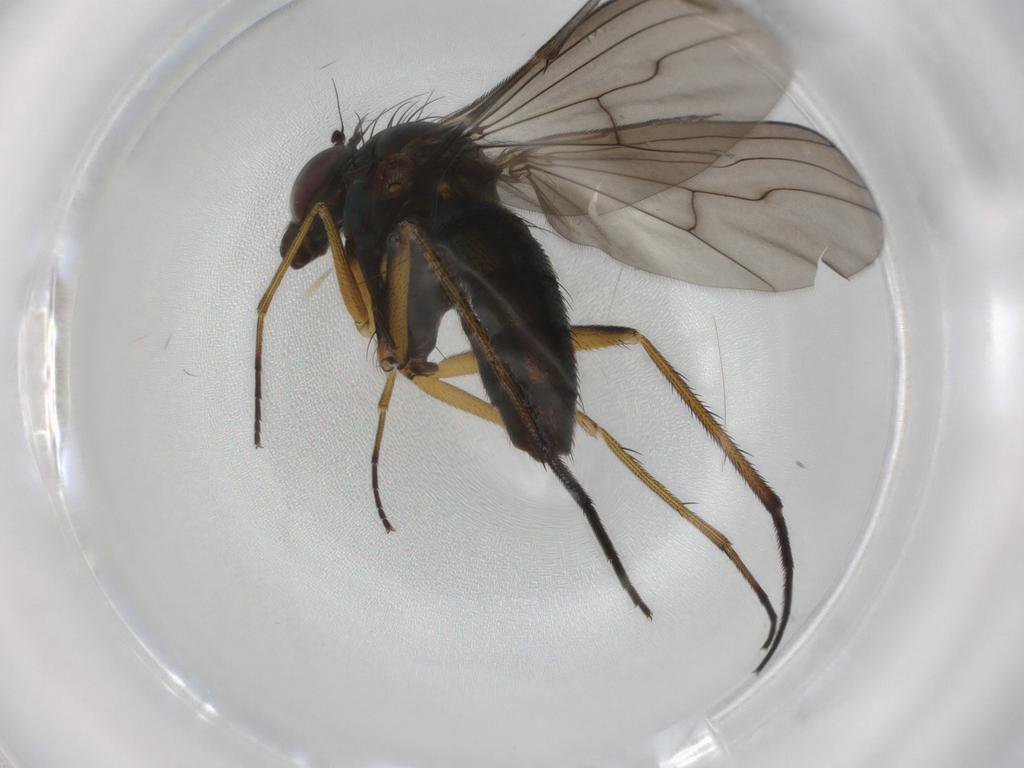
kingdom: Animalia
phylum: Arthropoda
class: Insecta
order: Diptera
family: Dolichopodidae
